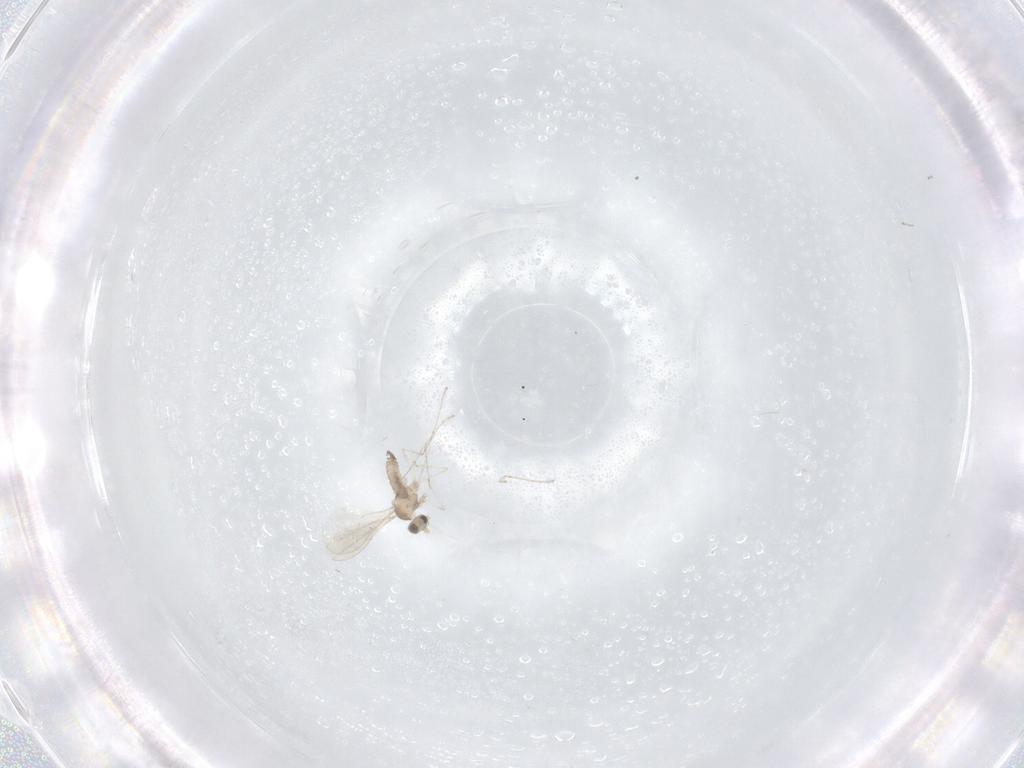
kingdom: Animalia
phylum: Arthropoda
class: Insecta
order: Diptera
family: Cecidomyiidae
